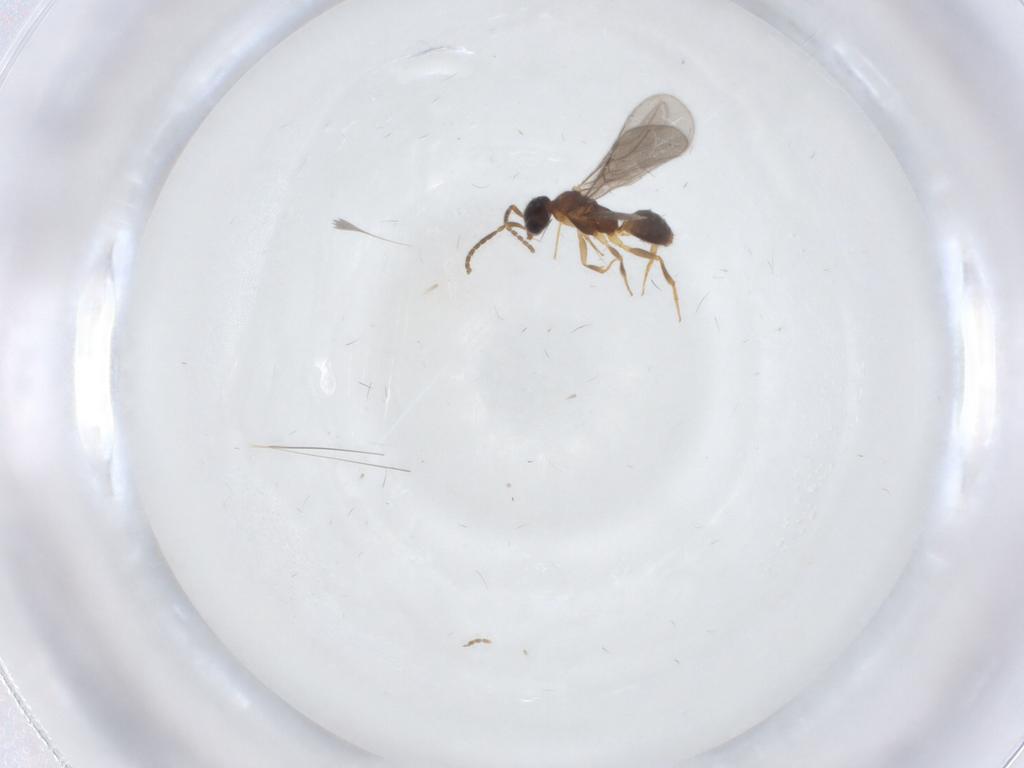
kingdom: Animalia
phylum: Arthropoda
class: Insecta
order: Hymenoptera
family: Bethylidae
